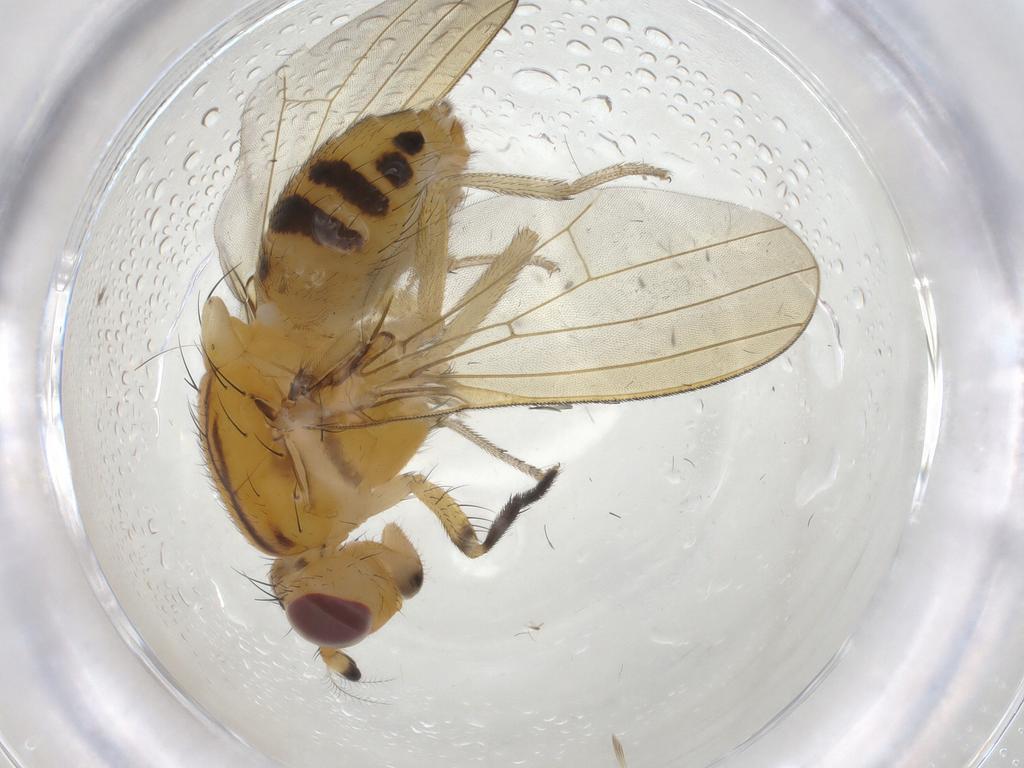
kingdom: Animalia
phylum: Arthropoda
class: Insecta
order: Diptera
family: Lauxaniidae
